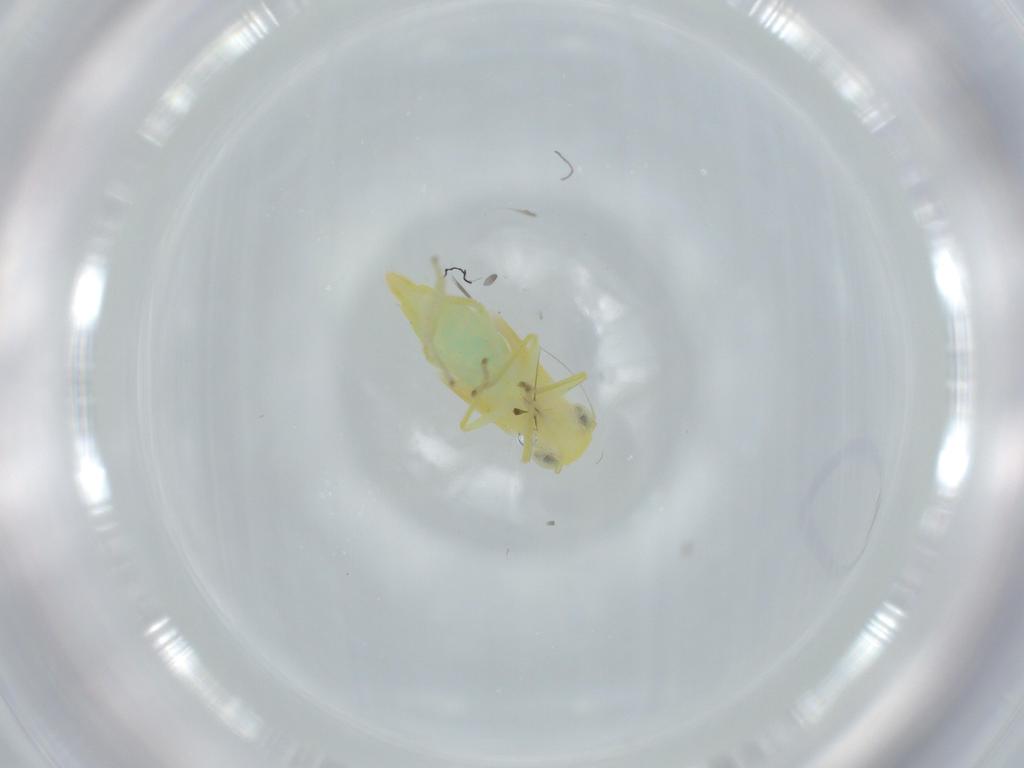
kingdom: Animalia
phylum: Arthropoda
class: Insecta
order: Hemiptera
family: Cicadellidae
